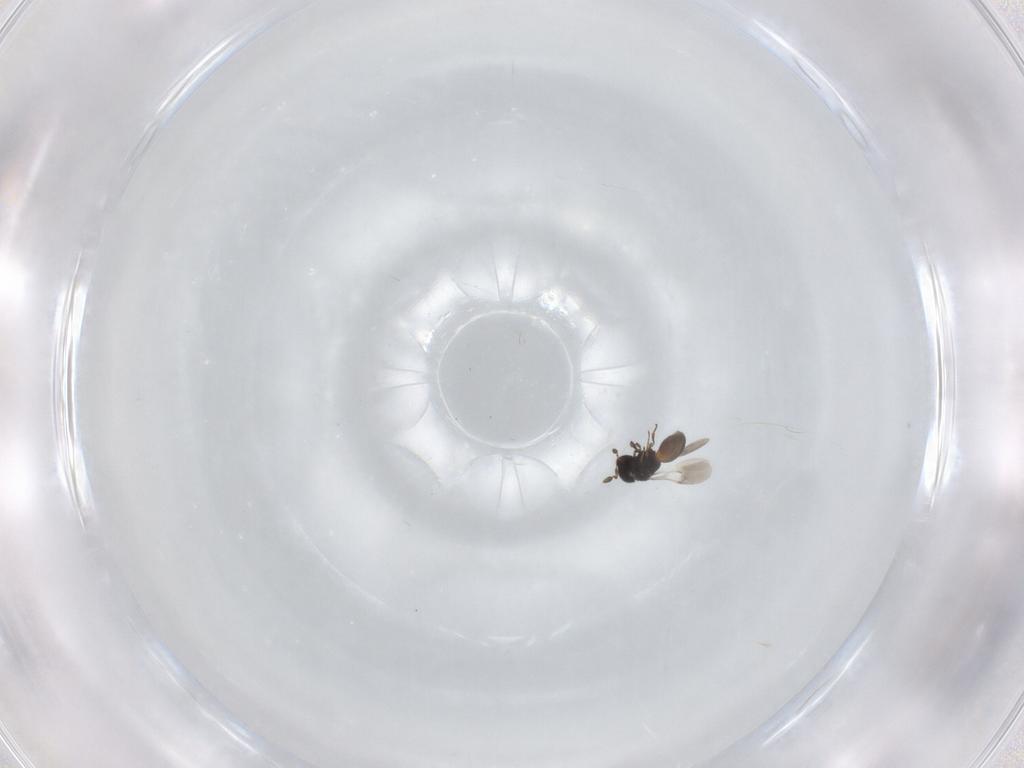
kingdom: Animalia
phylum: Arthropoda
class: Insecta
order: Hymenoptera
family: Scelionidae
